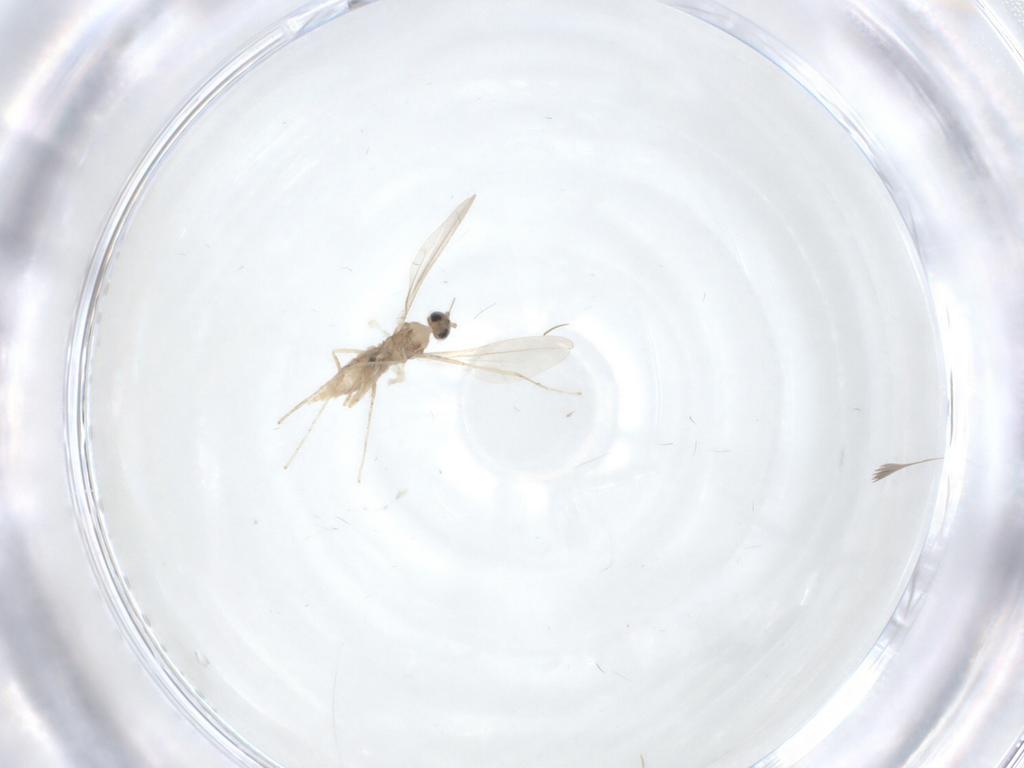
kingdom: Animalia
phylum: Arthropoda
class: Insecta
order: Diptera
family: Cecidomyiidae
